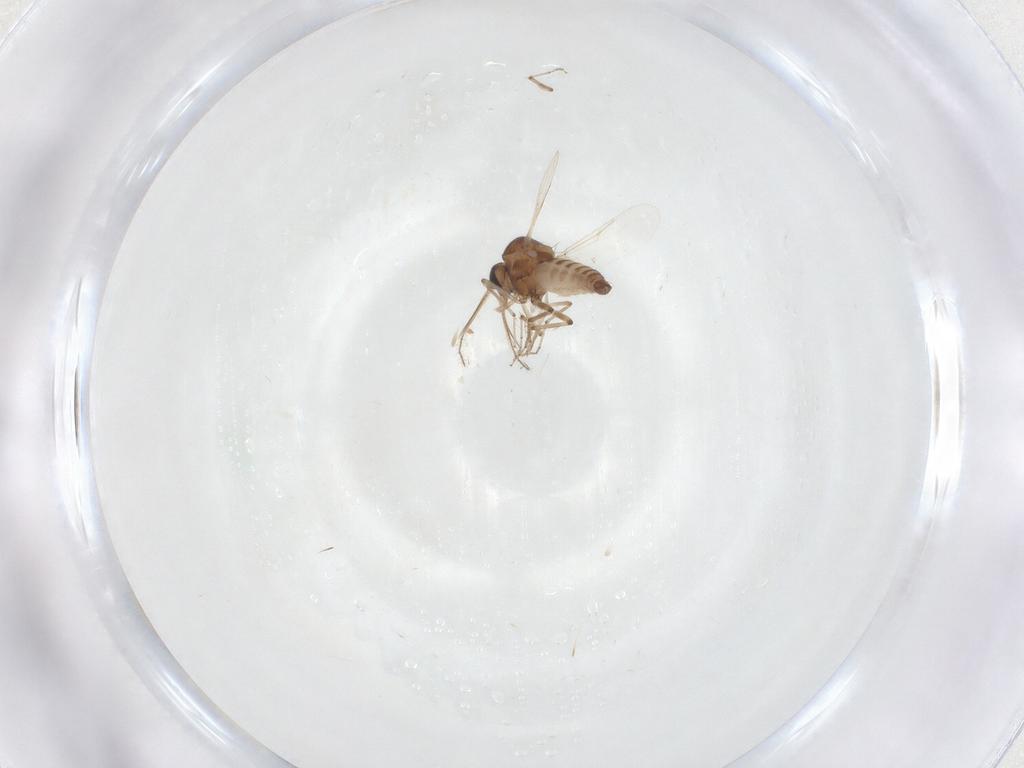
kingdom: Animalia
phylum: Arthropoda
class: Insecta
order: Diptera
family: Ceratopogonidae
